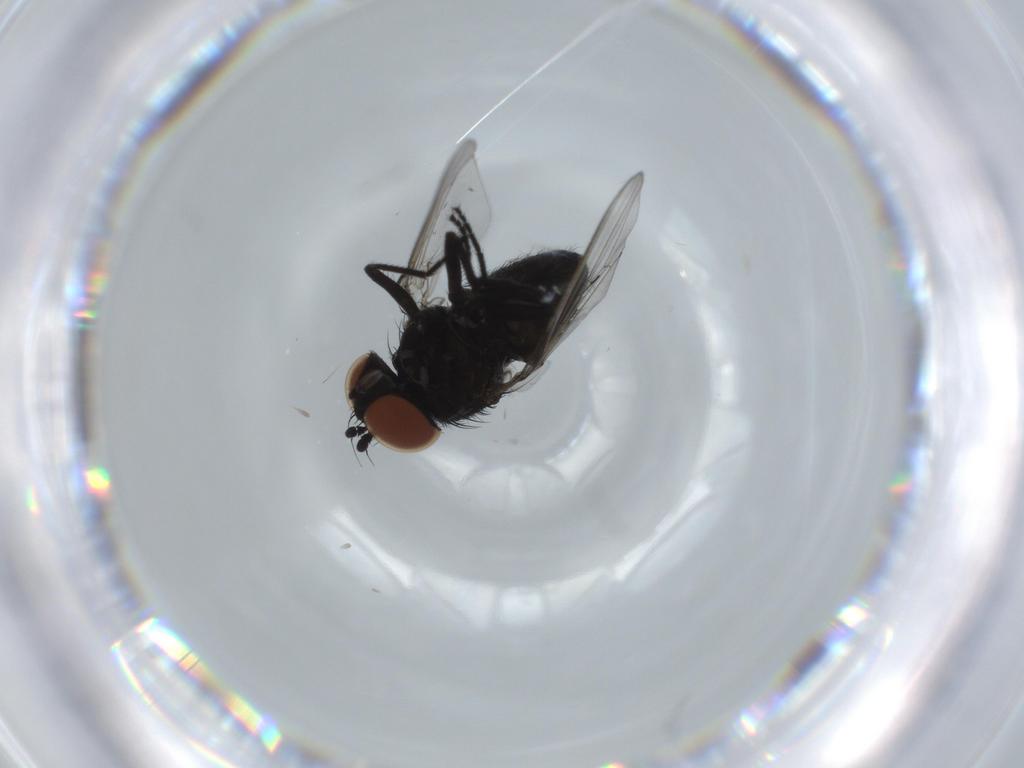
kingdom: Animalia
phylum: Arthropoda
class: Insecta
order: Diptera
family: Milichiidae
